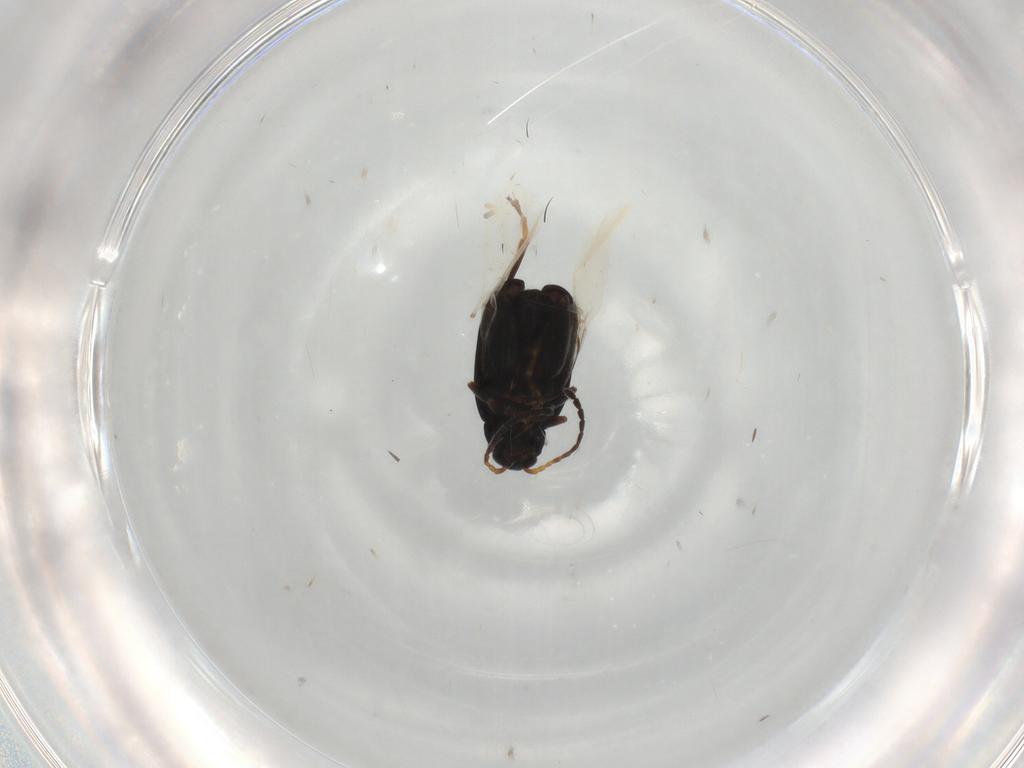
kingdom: Animalia
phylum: Arthropoda
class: Insecta
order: Coleoptera
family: Chrysomelidae
